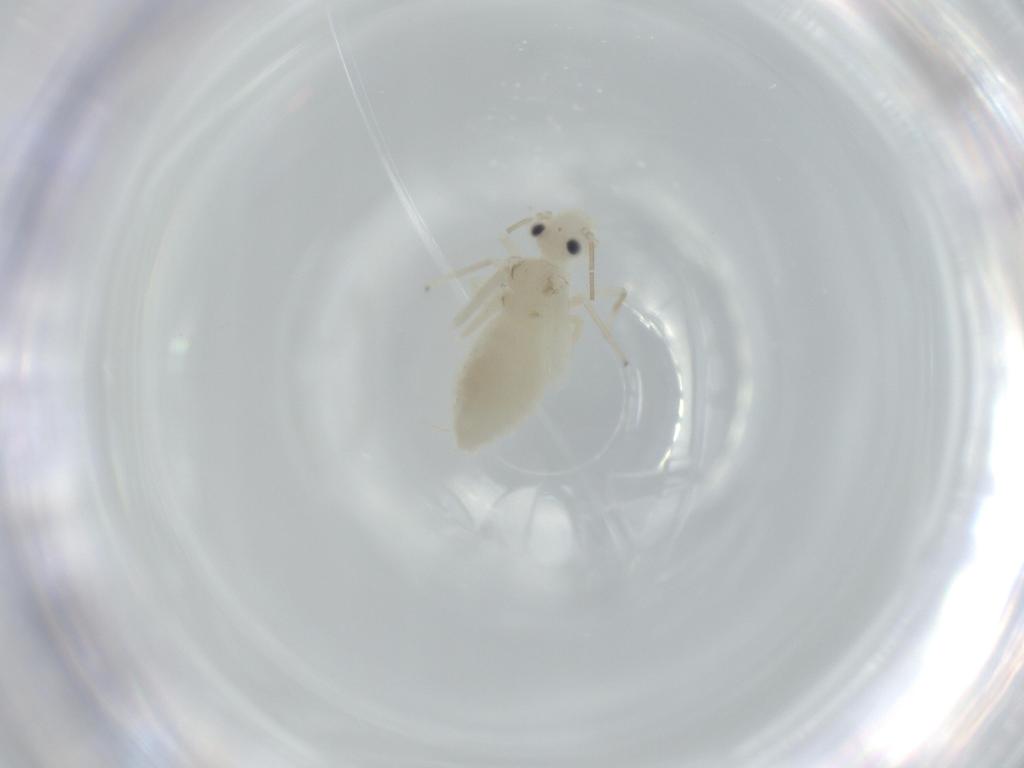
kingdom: Animalia
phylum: Arthropoda
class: Insecta
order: Psocodea
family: Caeciliusidae
